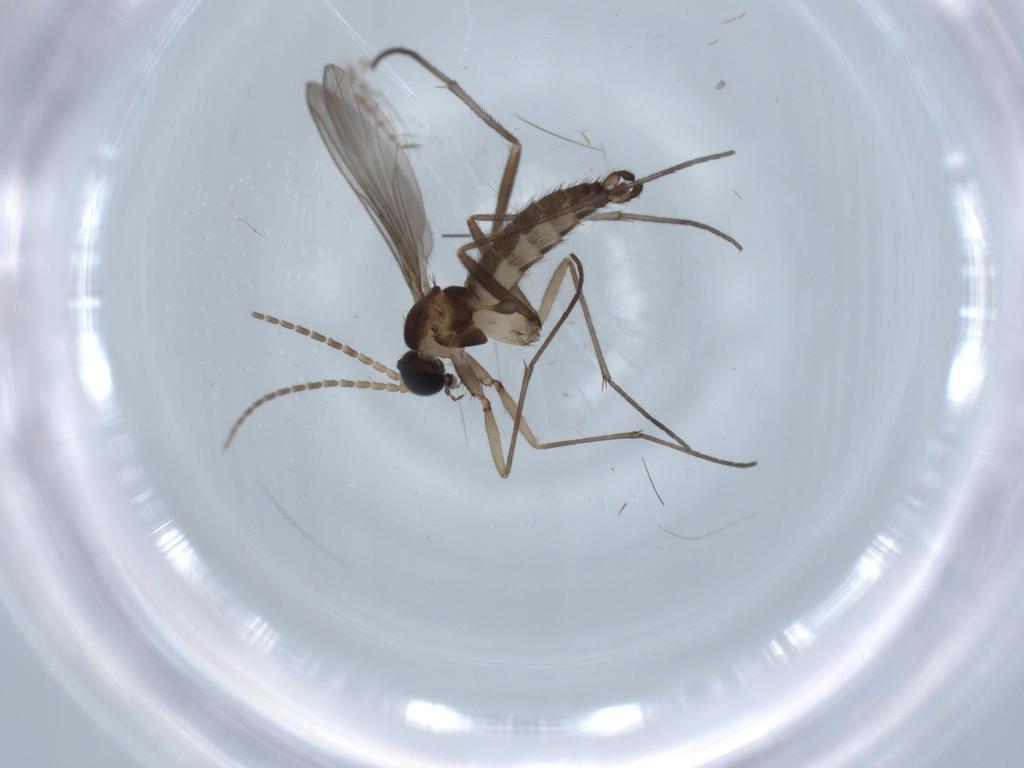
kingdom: Animalia
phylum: Arthropoda
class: Insecta
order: Diptera
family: Sciaridae
